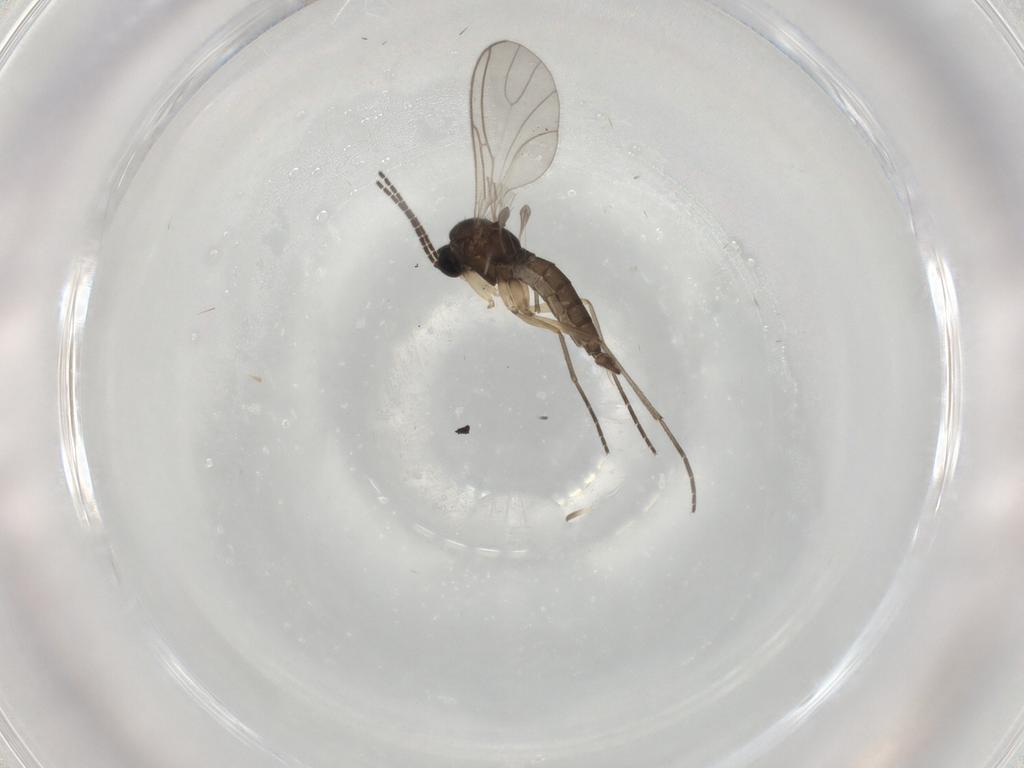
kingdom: Animalia
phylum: Arthropoda
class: Insecta
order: Diptera
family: Sciaridae
